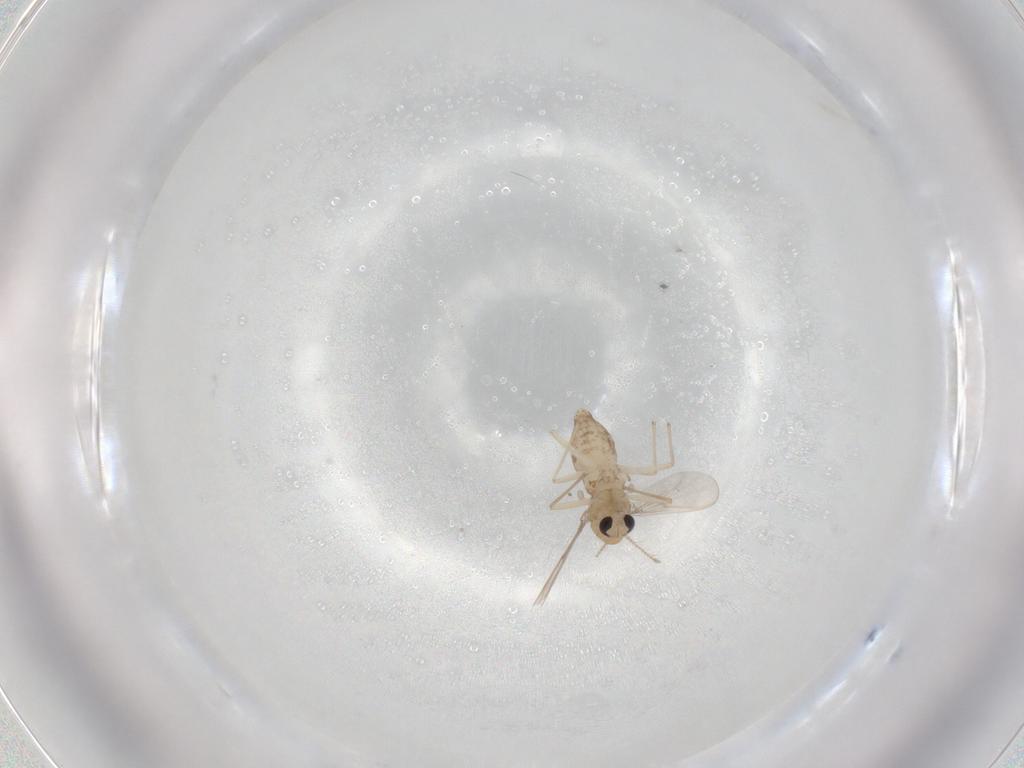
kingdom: Animalia
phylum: Arthropoda
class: Insecta
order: Diptera
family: Chironomidae
